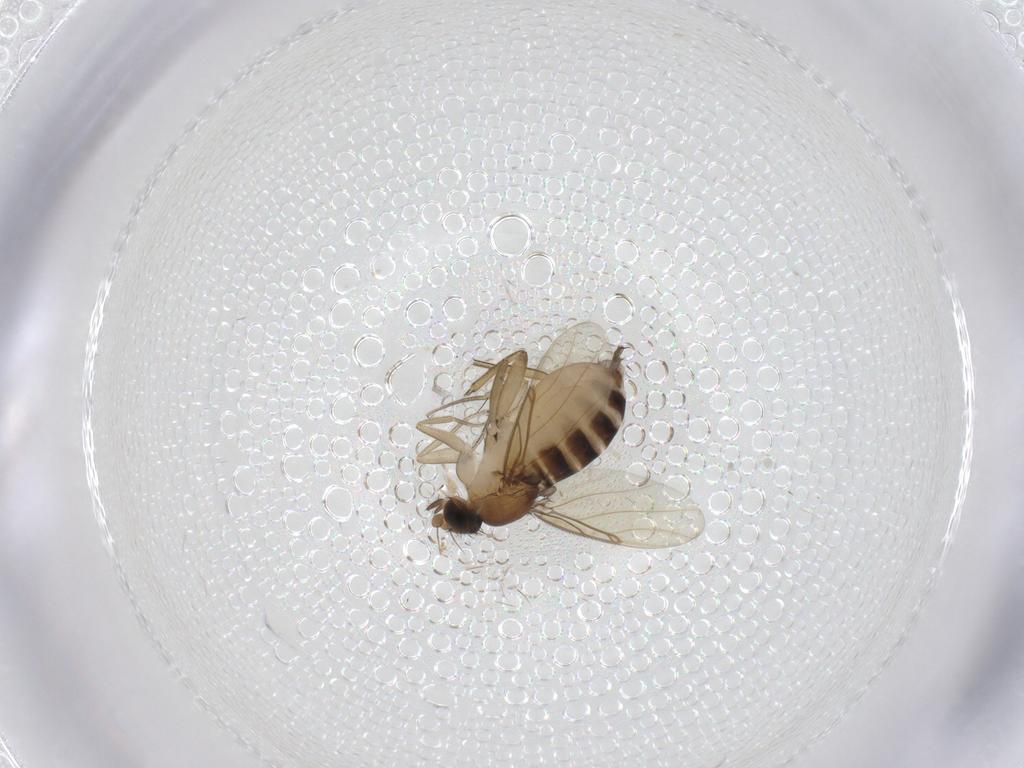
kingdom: Animalia
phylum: Arthropoda
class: Insecta
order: Diptera
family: Phoridae
